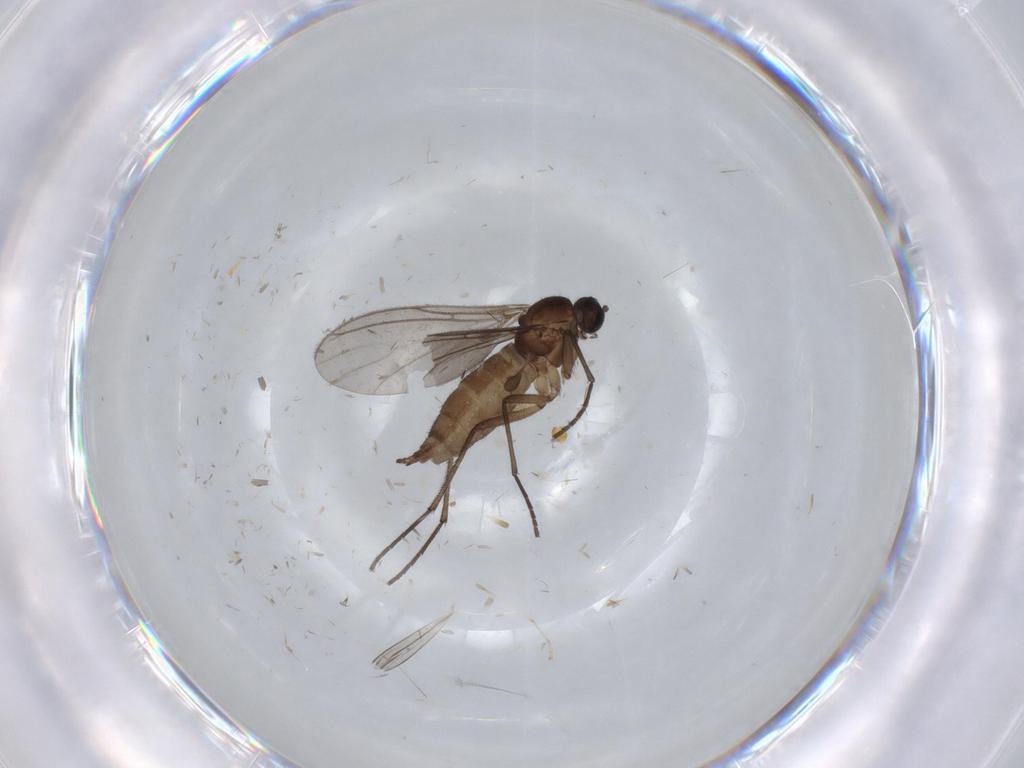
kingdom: Animalia
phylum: Arthropoda
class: Insecta
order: Diptera
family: Sciaridae
